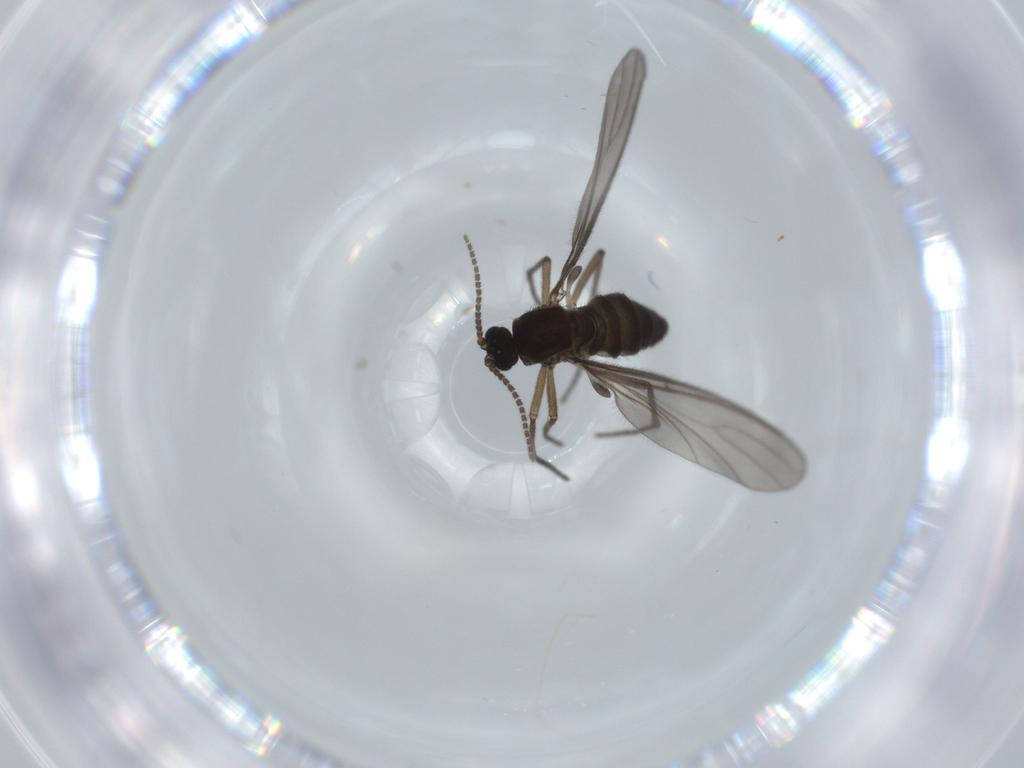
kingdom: Animalia
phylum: Arthropoda
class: Insecta
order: Diptera
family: Sciaridae
